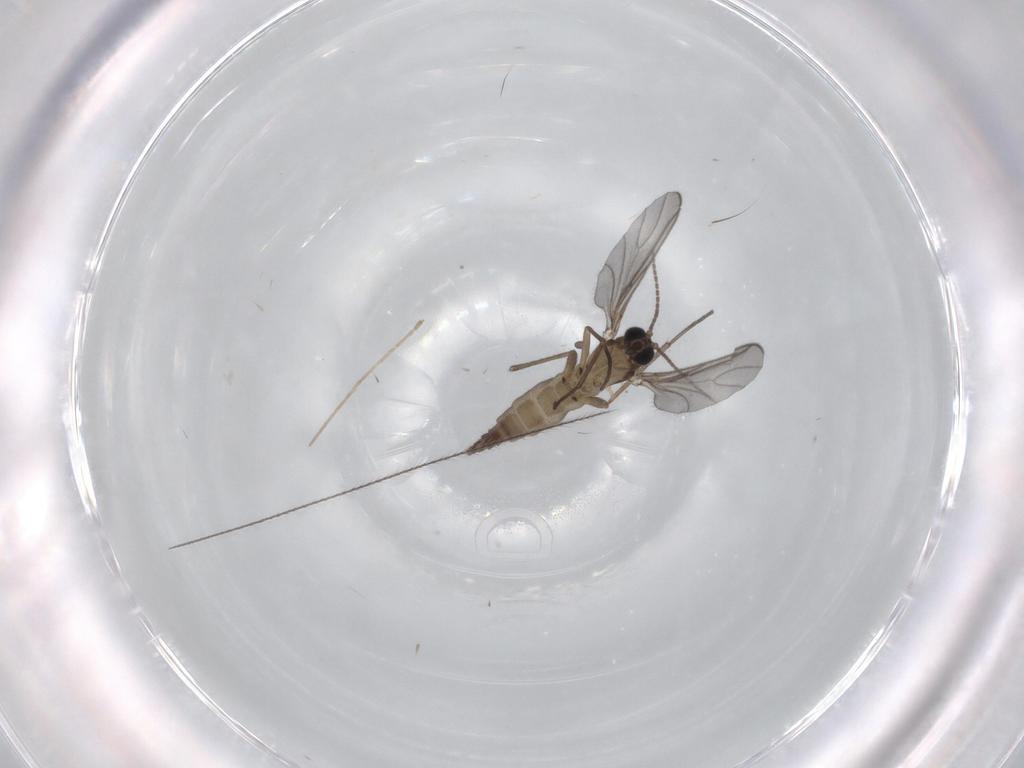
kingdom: Animalia
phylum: Arthropoda
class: Insecta
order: Diptera
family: Sciaridae
